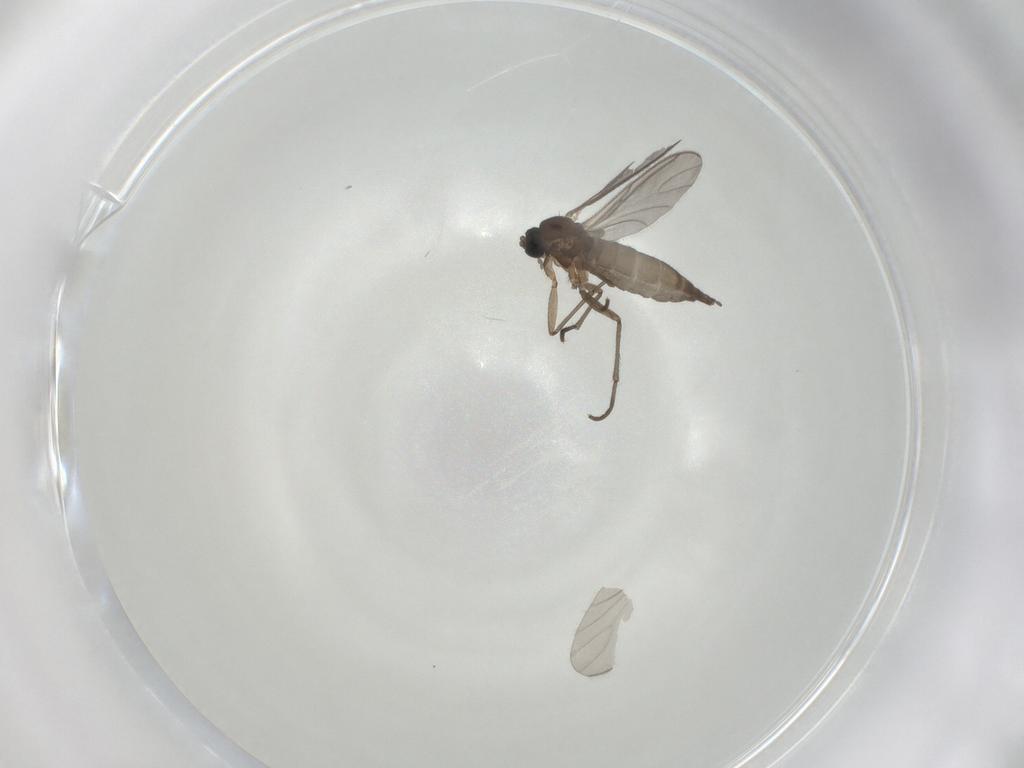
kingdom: Animalia
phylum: Arthropoda
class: Insecta
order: Diptera
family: Sciaridae
